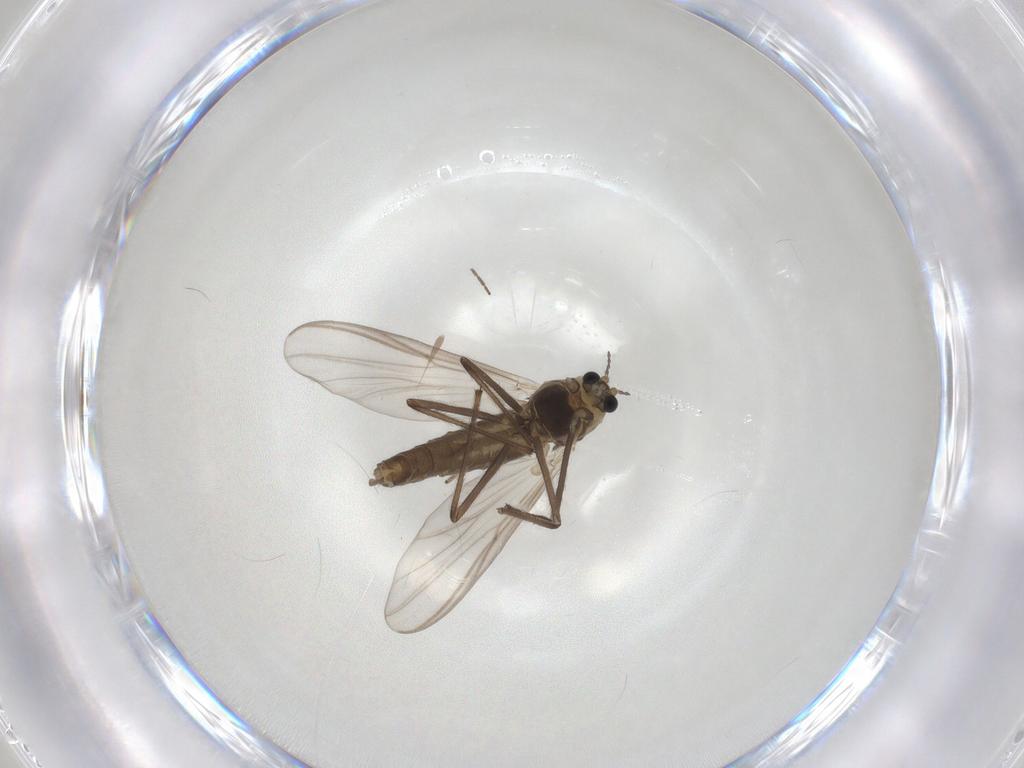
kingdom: Animalia
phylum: Arthropoda
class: Insecta
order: Diptera
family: Chironomidae
